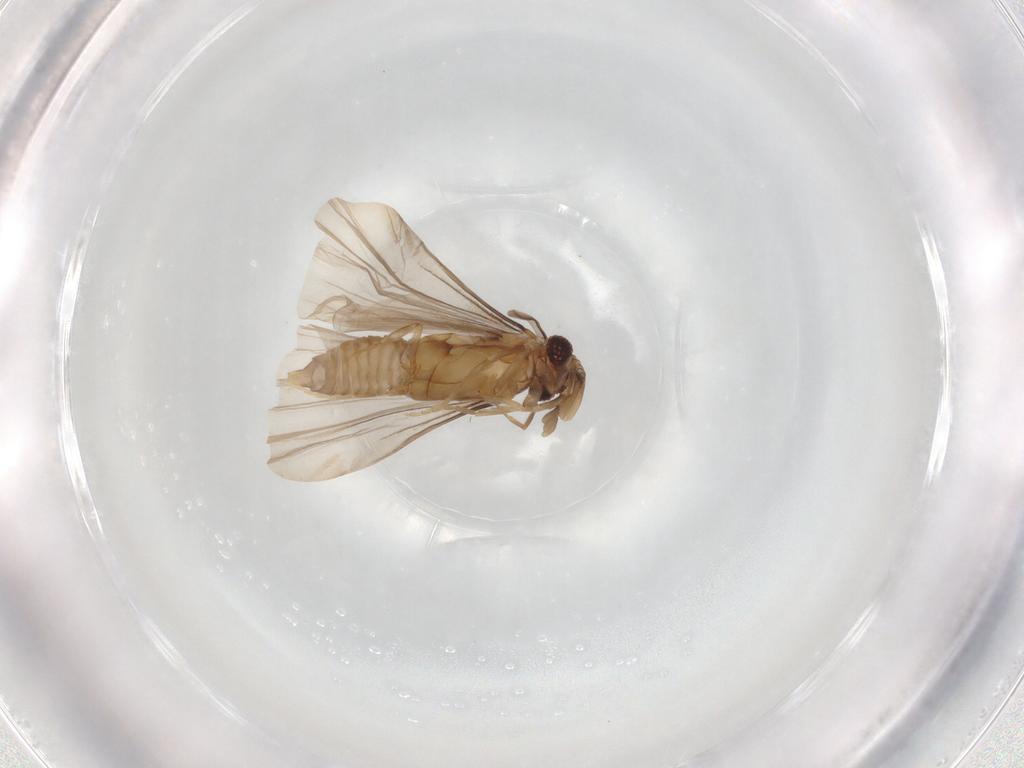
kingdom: Animalia
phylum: Arthropoda
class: Insecta
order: Strepsiptera
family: Mengenillidae
